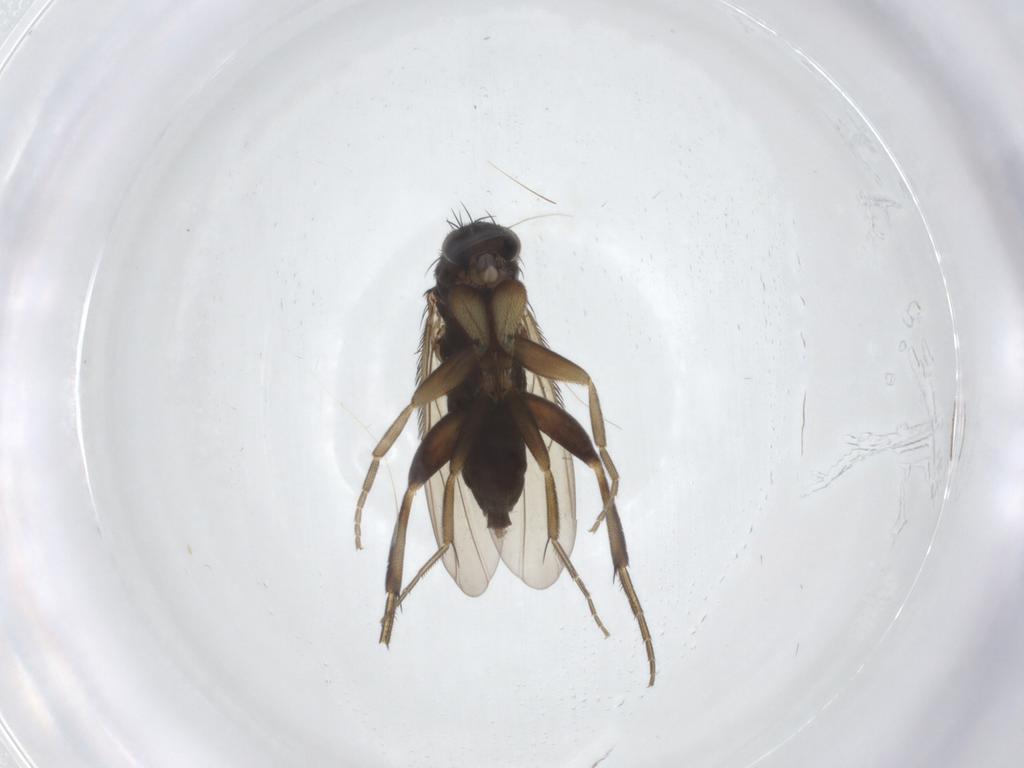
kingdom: Animalia
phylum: Arthropoda
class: Insecta
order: Diptera
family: Phoridae
